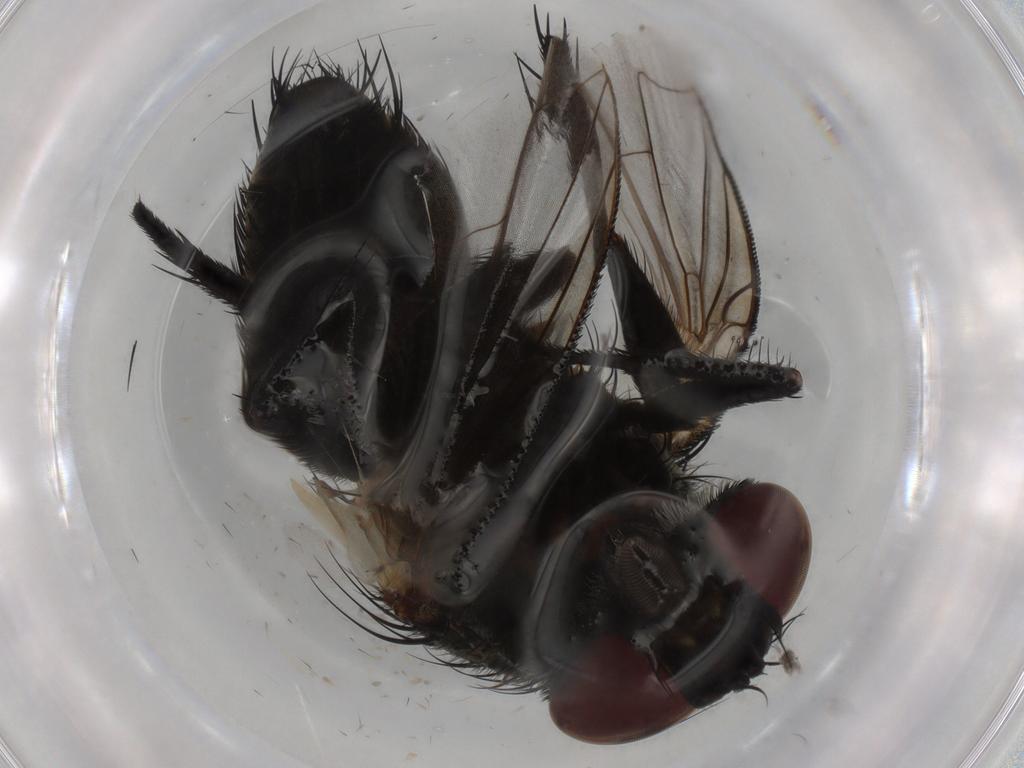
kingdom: Animalia
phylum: Arthropoda
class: Insecta
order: Diptera
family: Tachinidae
